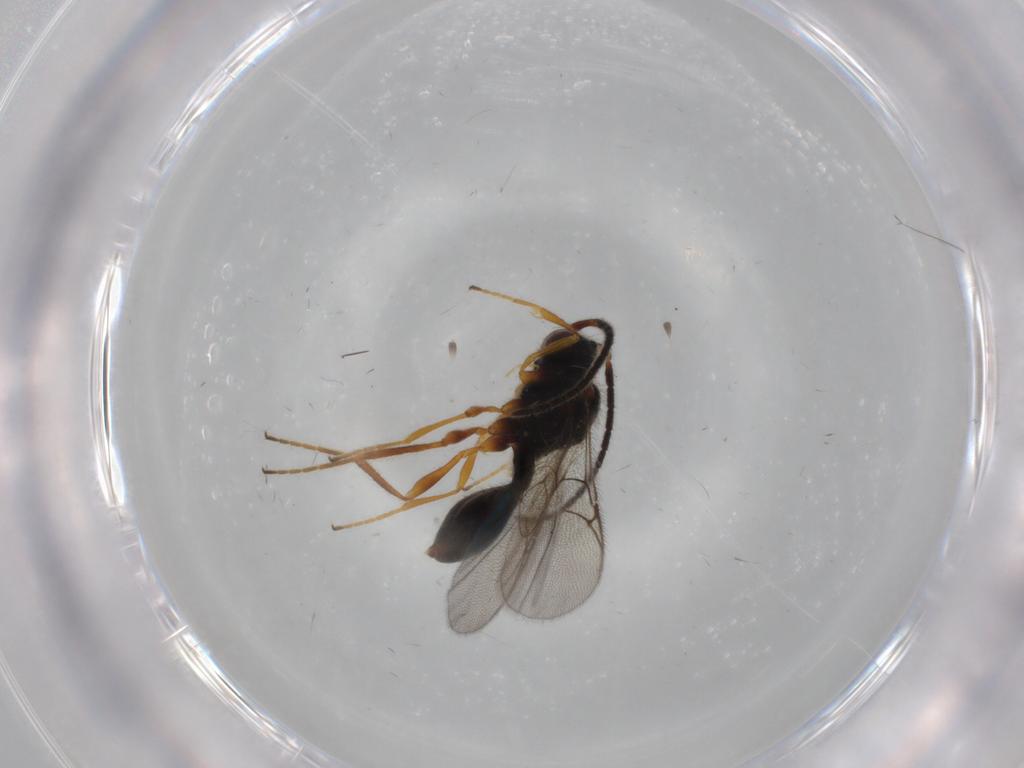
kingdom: Animalia
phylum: Arthropoda
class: Insecta
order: Hymenoptera
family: Diapriidae
